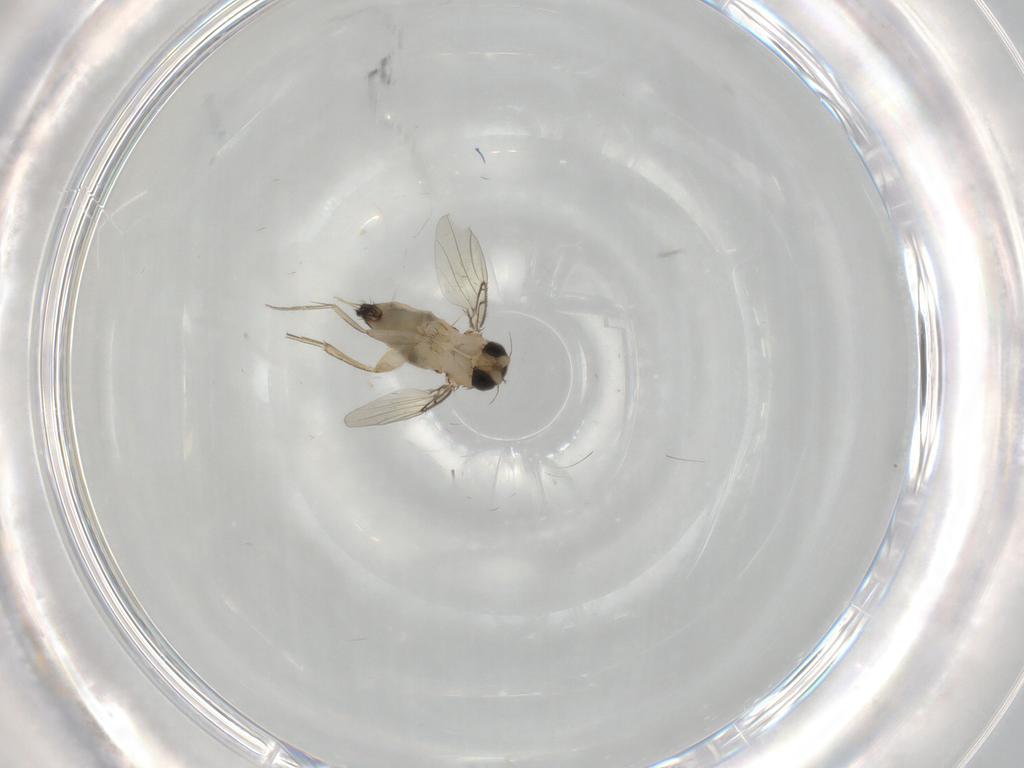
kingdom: Animalia
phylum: Arthropoda
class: Insecta
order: Diptera
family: Phoridae
